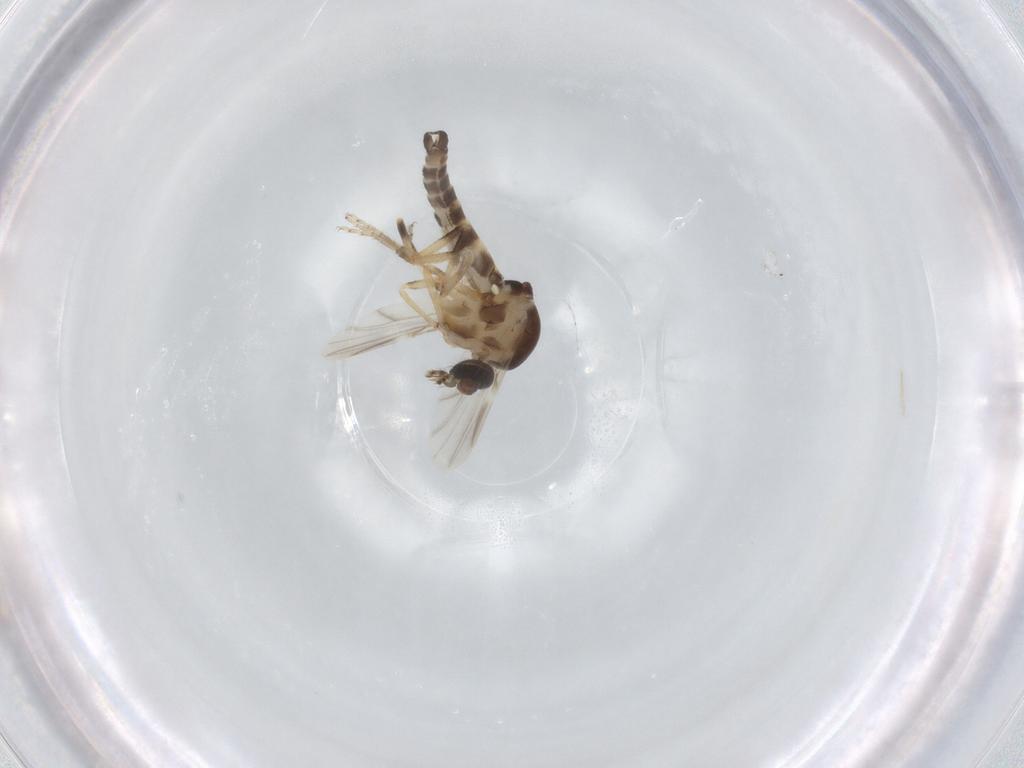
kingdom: Animalia
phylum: Arthropoda
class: Insecta
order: Diptera
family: Ceratopogonidae
